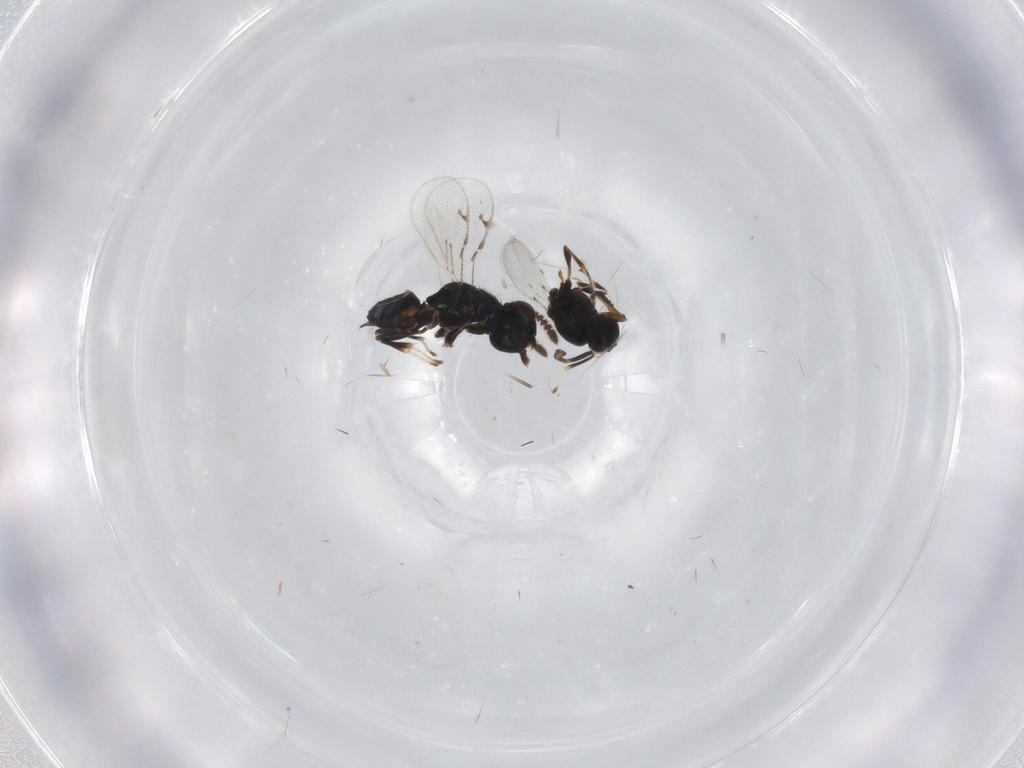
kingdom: Animalia
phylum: Arthropoda
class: Insecta
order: Hymenoptera
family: Pteromalidae
